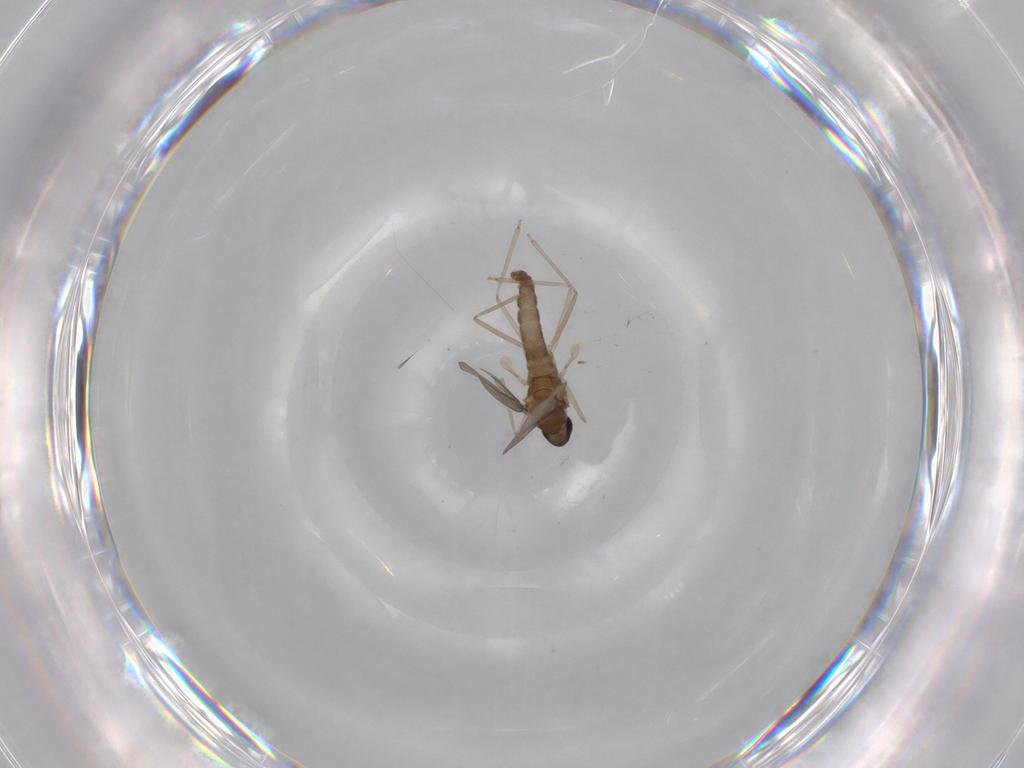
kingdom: Animalia
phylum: Arthropoda
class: Insecta
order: Diptera
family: Cecidomyiidae
